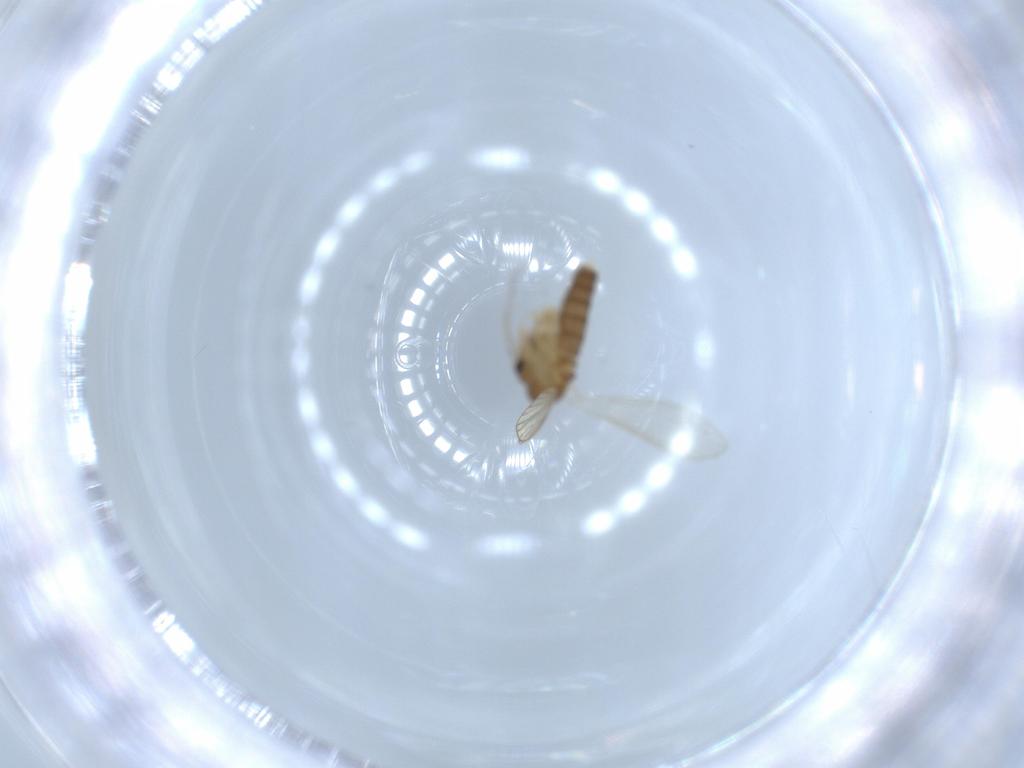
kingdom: Animalia
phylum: Arthropoda
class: Insecta
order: Diptera
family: Psychodidae
